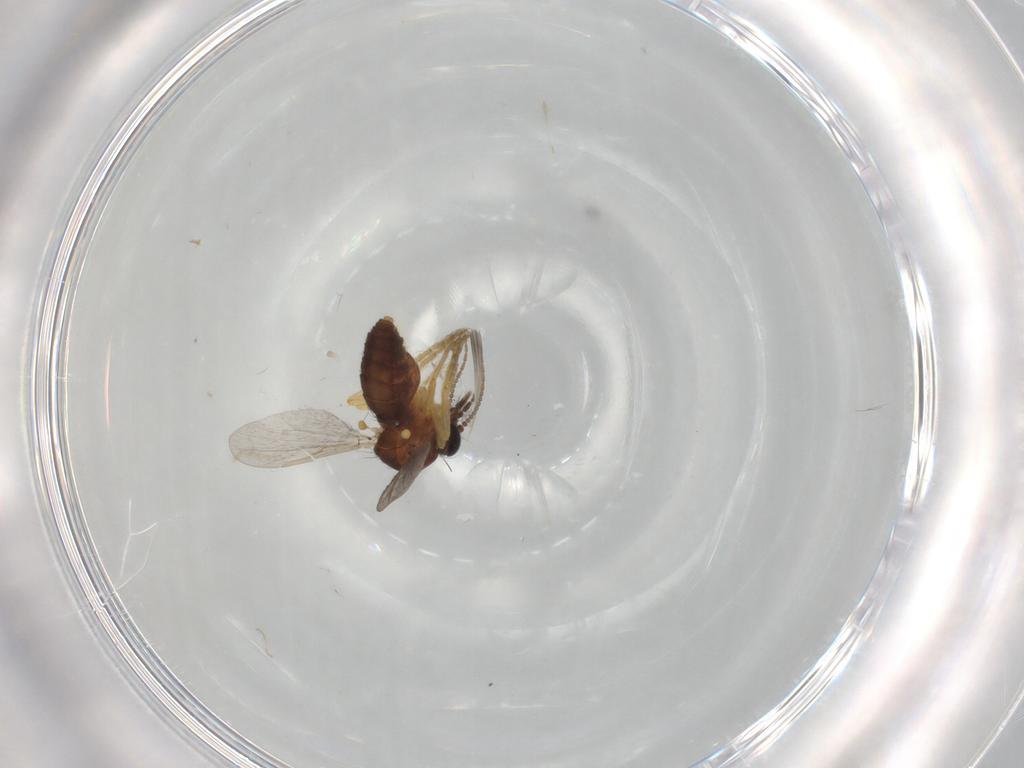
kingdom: Animalia
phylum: Arthropoda
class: Insecta
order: Diptera
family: Ceratopogonidae
